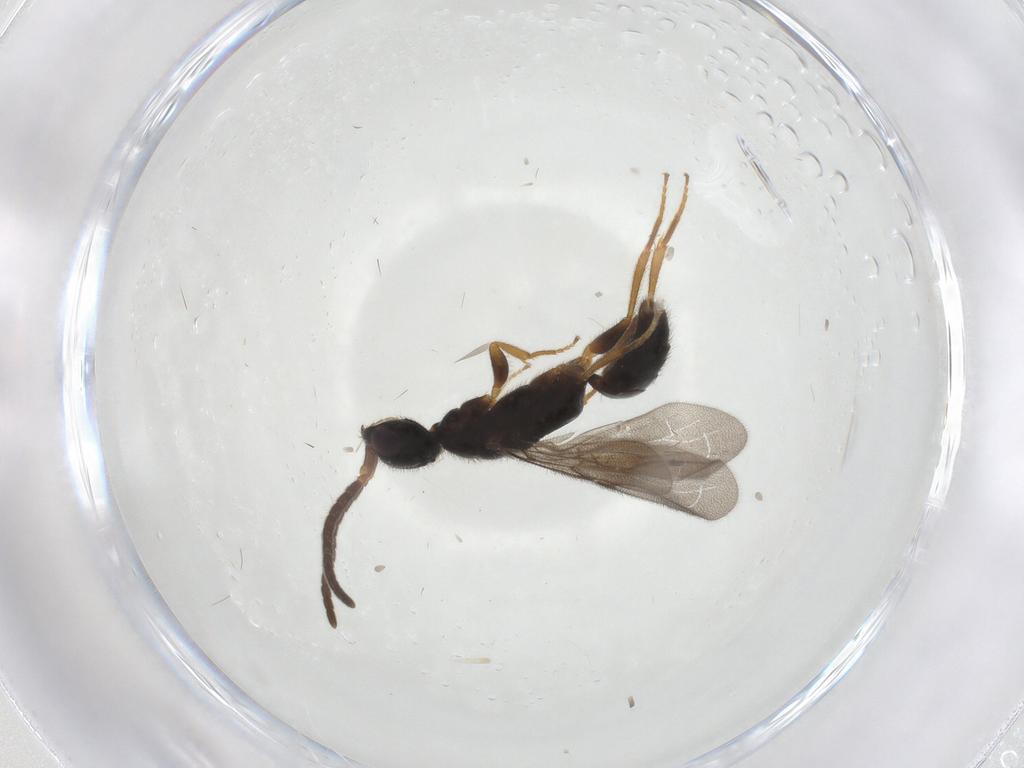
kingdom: Animalia
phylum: Arthropoda
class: Insecta
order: Hymenoptera
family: Bethylidae
